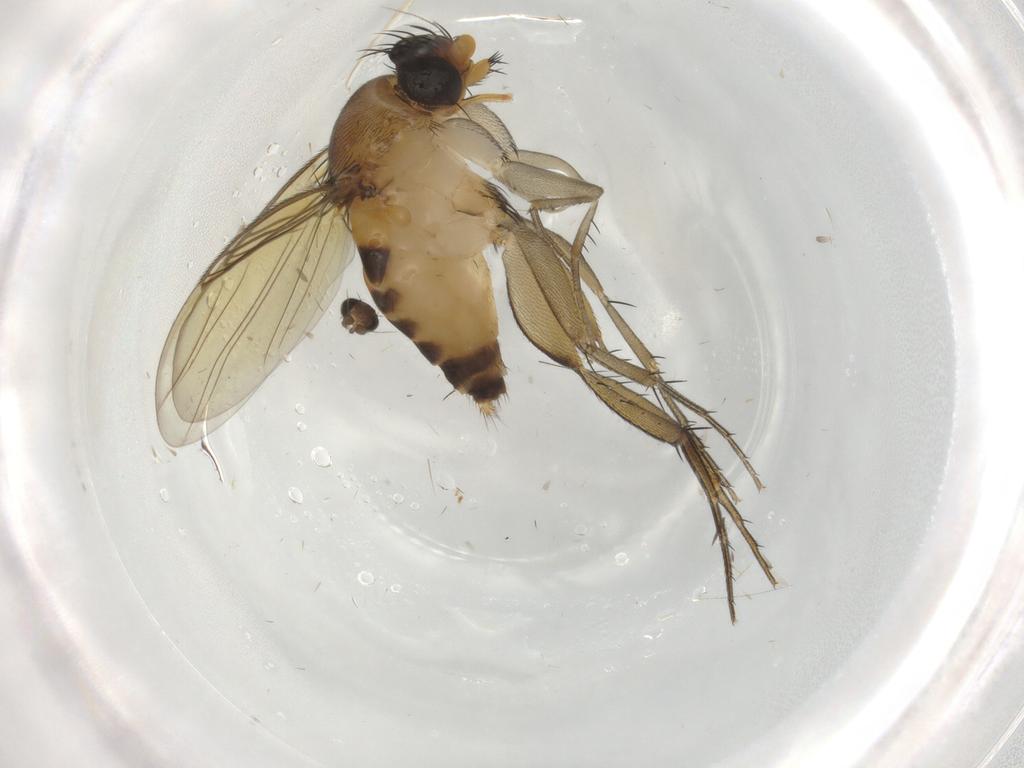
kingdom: Animalia
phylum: Arthropoda
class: Insecta
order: Diptera
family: Phoridae
